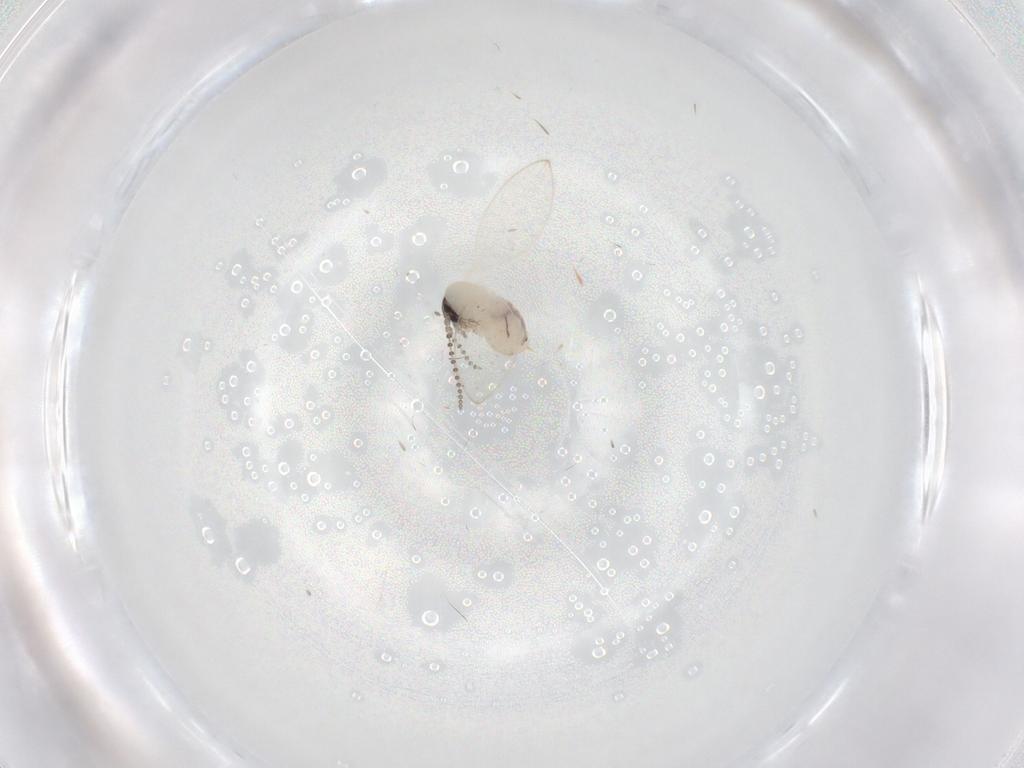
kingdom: Animalia
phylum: Arthropoda
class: Insecta
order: Diptera
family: Psychodidae
